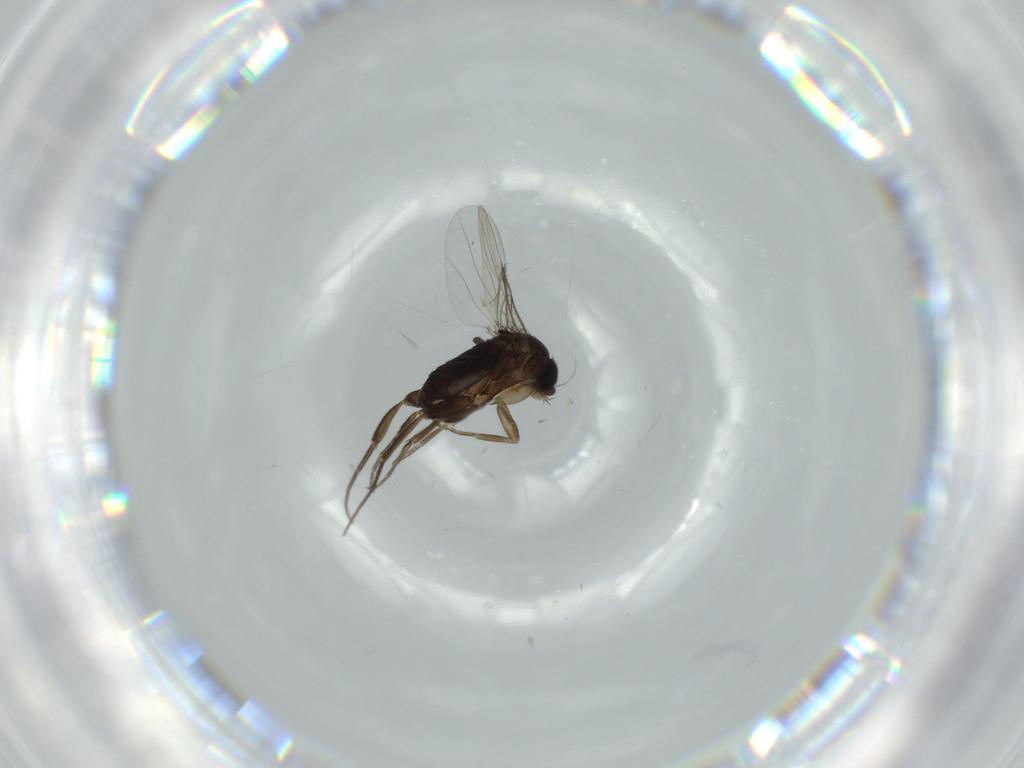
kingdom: Animalia
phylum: Arthropoda
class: Insecta
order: Diptera
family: Phoridae
